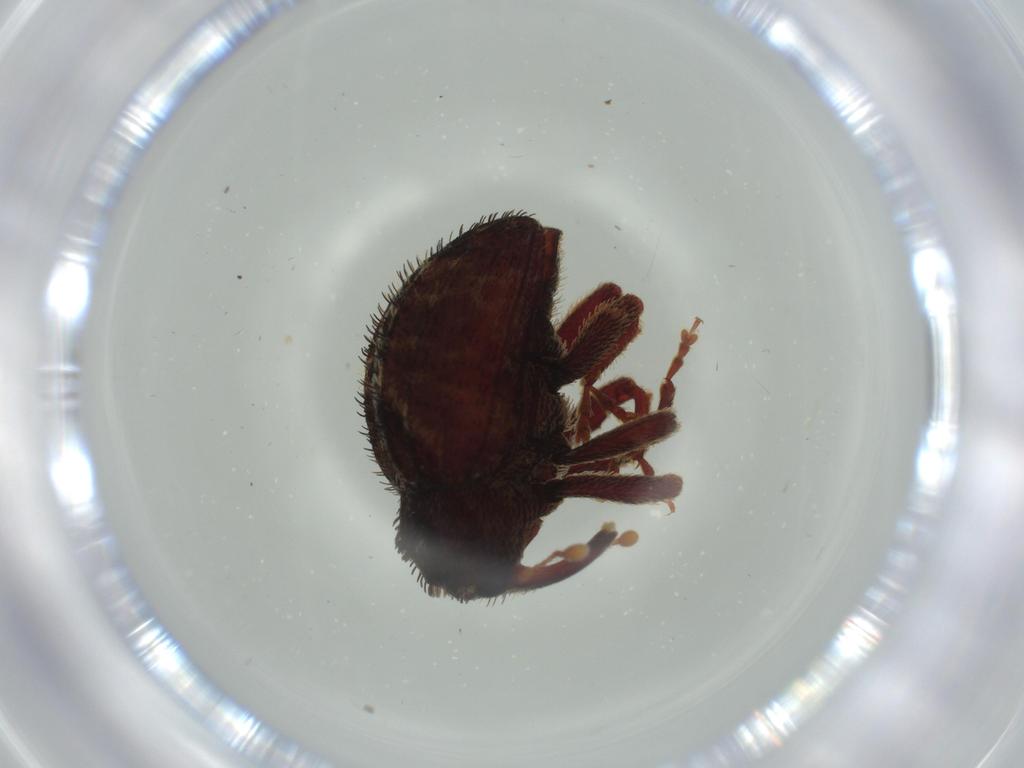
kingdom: Animalia
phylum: Arthropoda
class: Insecta
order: Coleoptera
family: Curculionidae
